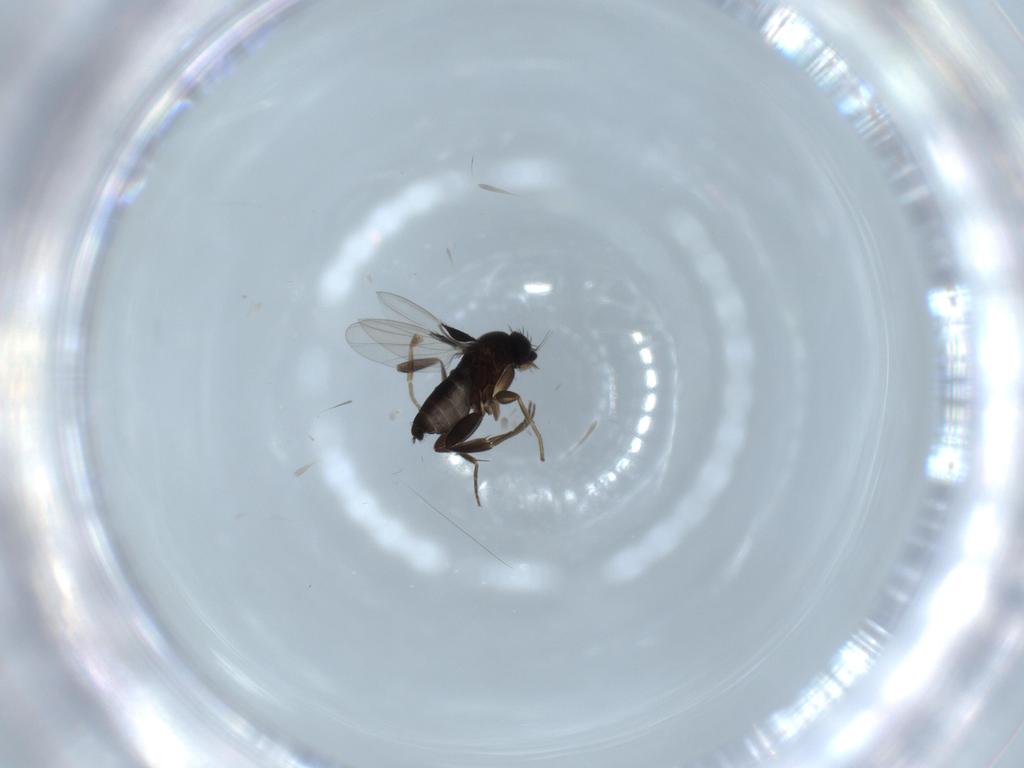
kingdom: Animalia
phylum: Arthropoda
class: Insecta
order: Diptera
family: Phoridae
